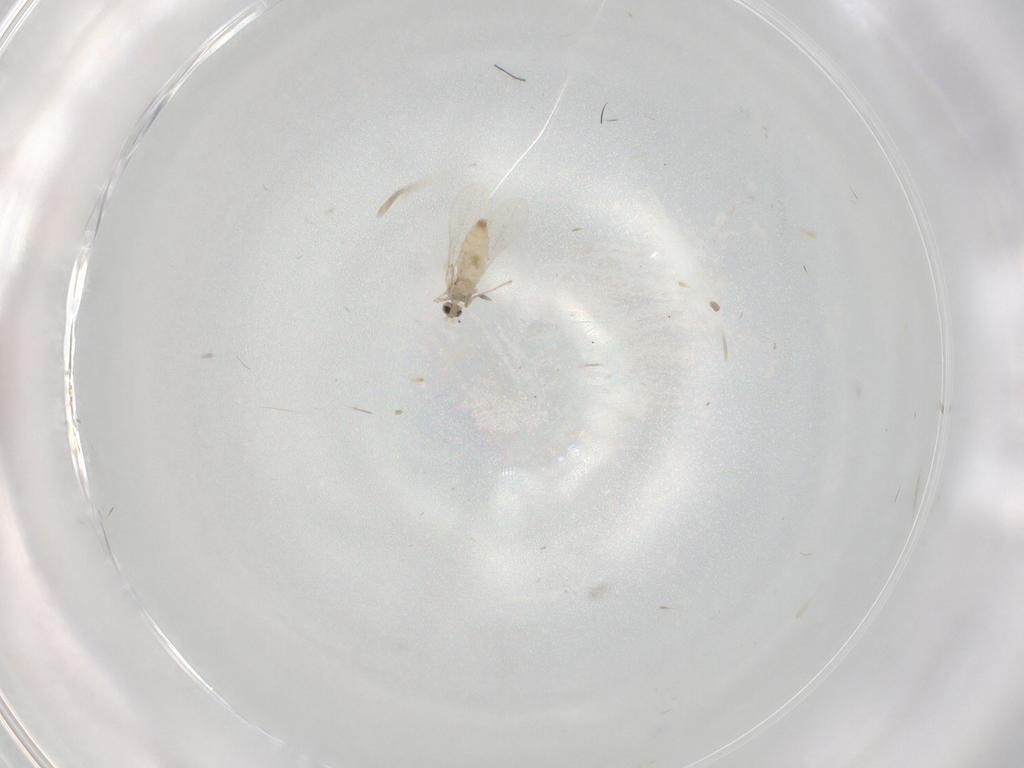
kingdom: Animalia
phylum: Arthropoda
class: Insecta
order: Diptera
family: Cecidomyiidae
